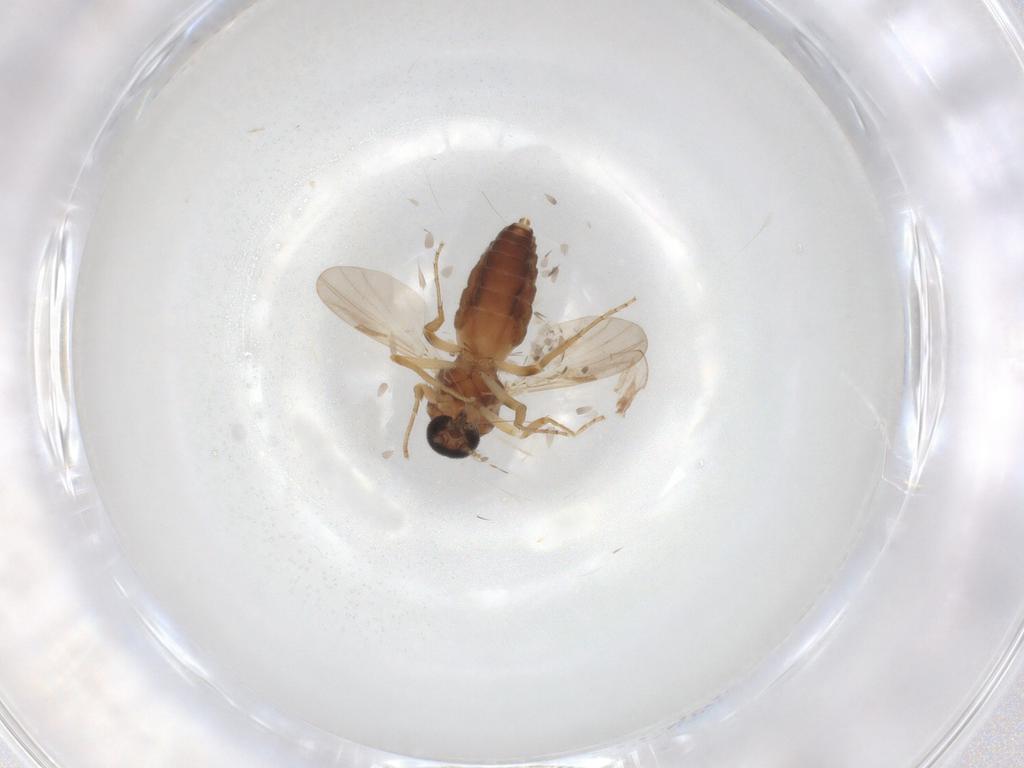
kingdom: Animalia
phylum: Arthropoda
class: Insecta
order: Diptera
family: Ceratopogonidae
